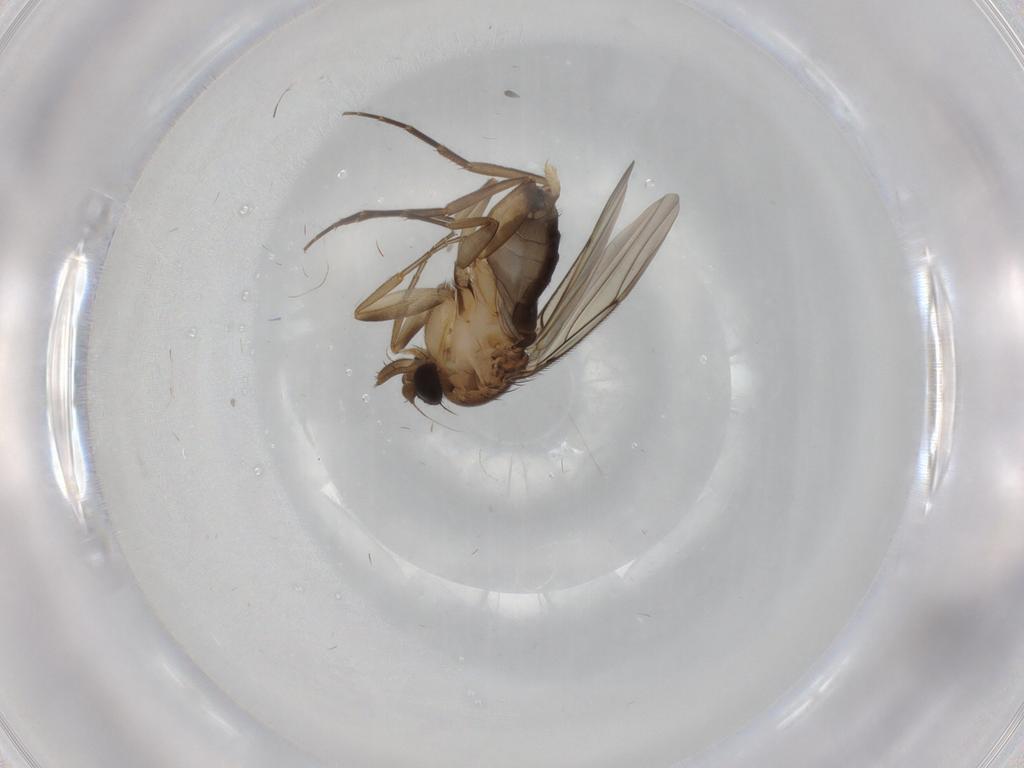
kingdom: Animalia
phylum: Arthropoda
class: Insecta
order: Diptera
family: Phoridae
